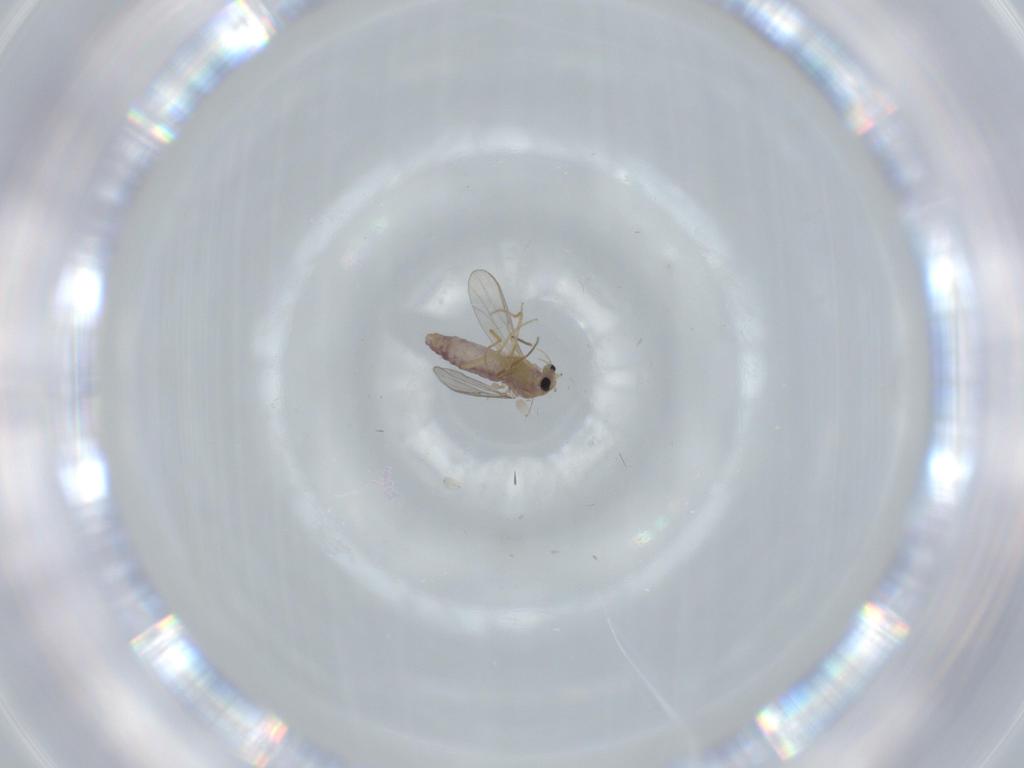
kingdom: Animalia
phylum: Arthropoda
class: Insecta
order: Diptera
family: Chironomidae
